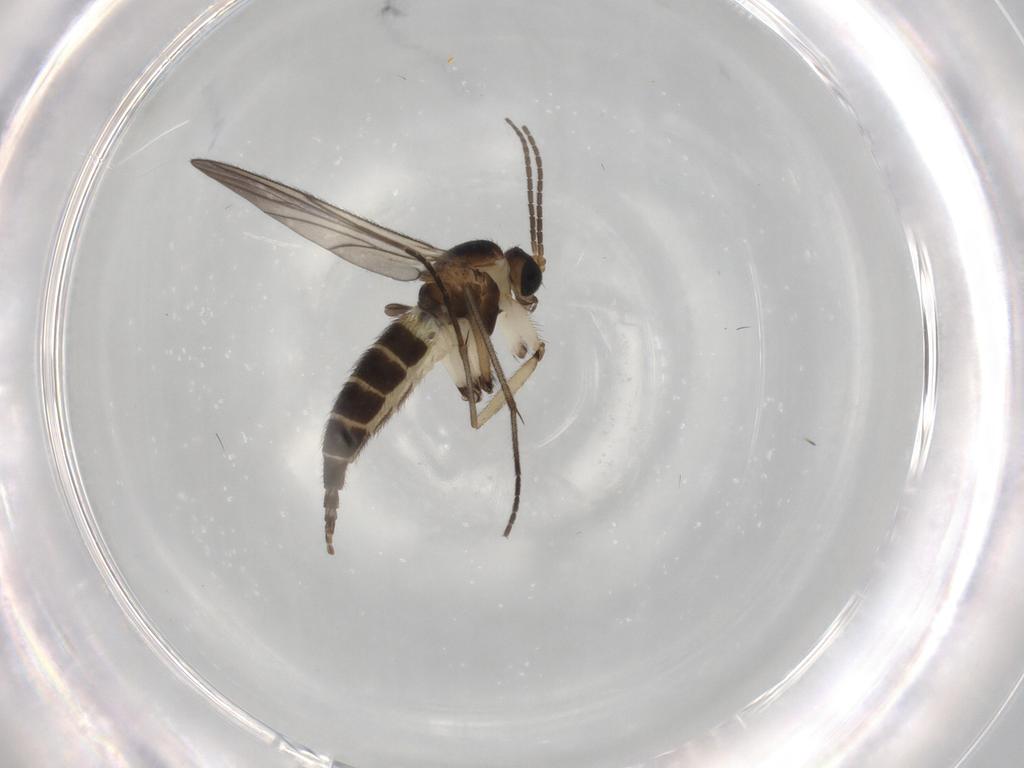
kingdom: Animalia
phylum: Arthropoda
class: Insecta
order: Diptera
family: Sciaridae
